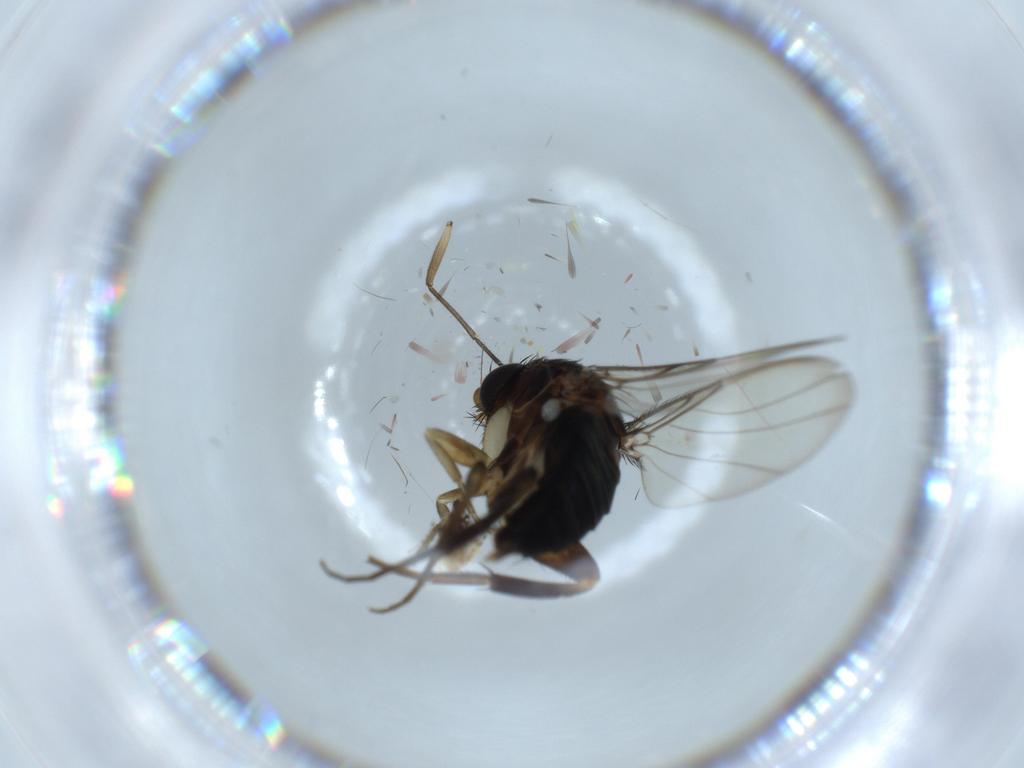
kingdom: Animalia
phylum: Arthropoda
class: Insecta
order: Diptera
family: Phoridae
